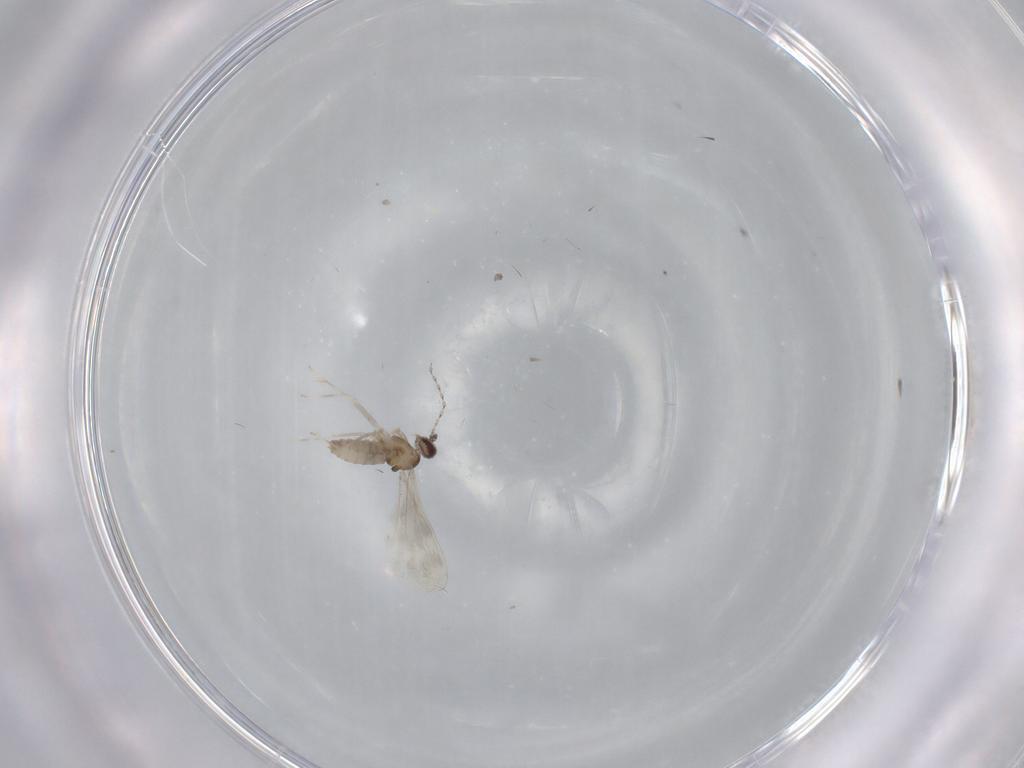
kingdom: Animalia
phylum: Arthropoda
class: Insecta
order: Diptera
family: Cecidomyiidae
